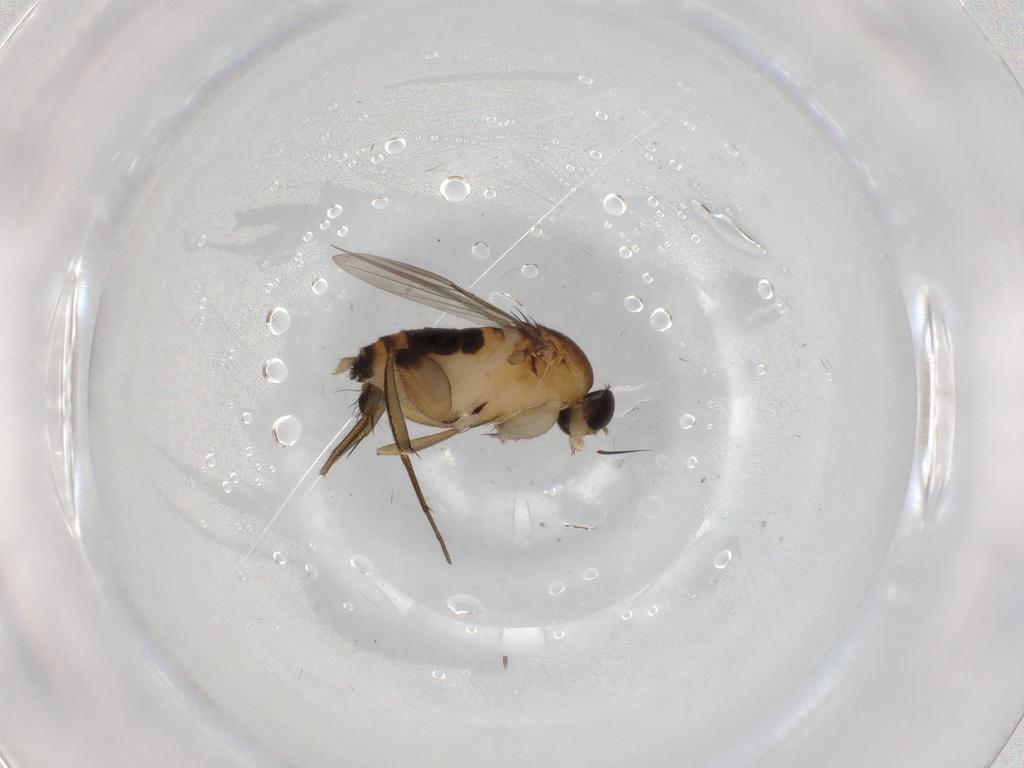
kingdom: Animalia
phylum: Arthropoda
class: Insecta
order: Diptera
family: Phoridae
